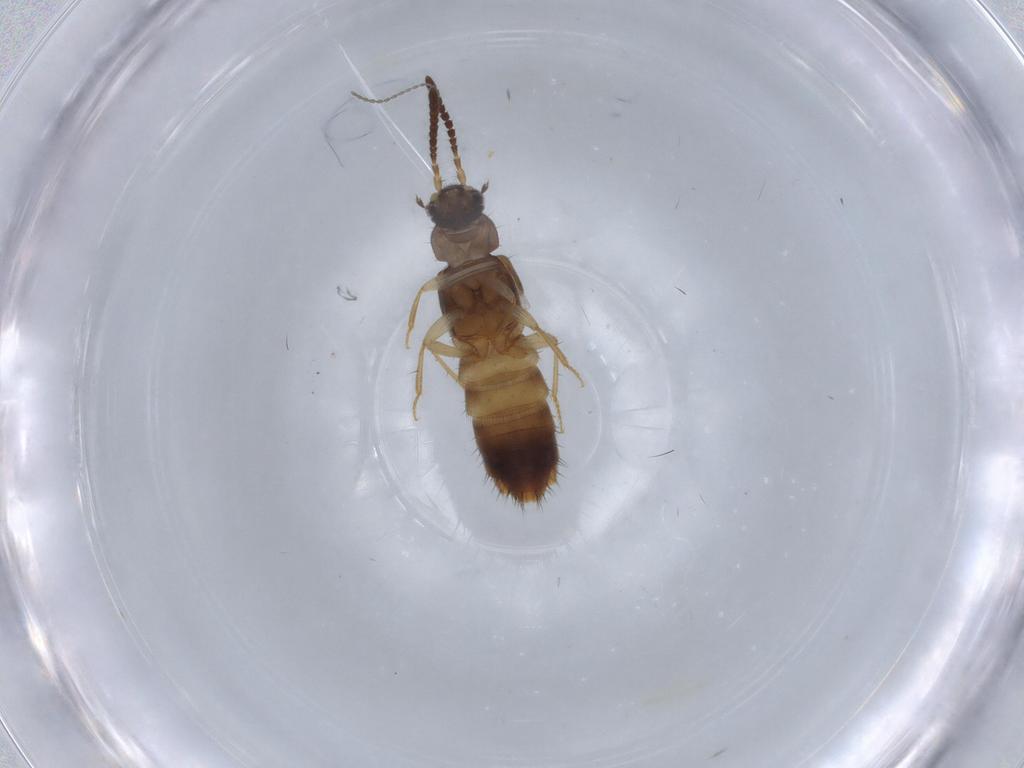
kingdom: Animalia
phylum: Arthropoda
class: Insecta
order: Coleoptera
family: Staphylinidae
